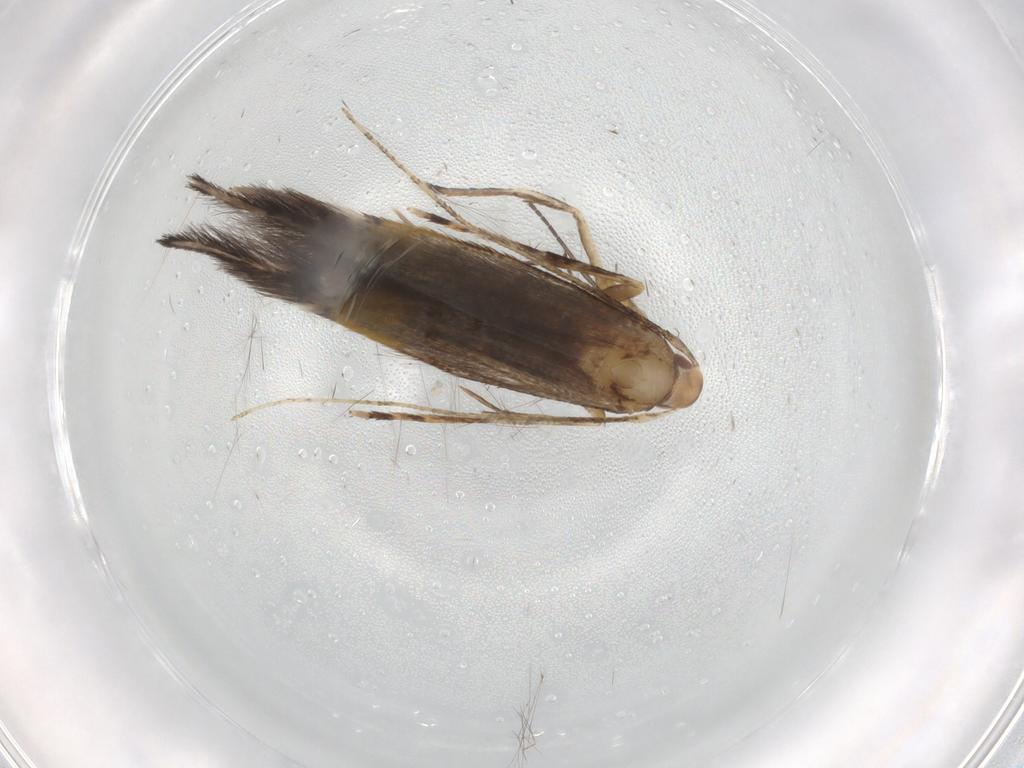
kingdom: Animalia
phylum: Arthropoda
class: Insecta
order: Lepidoptera
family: Cosmopterigidae
